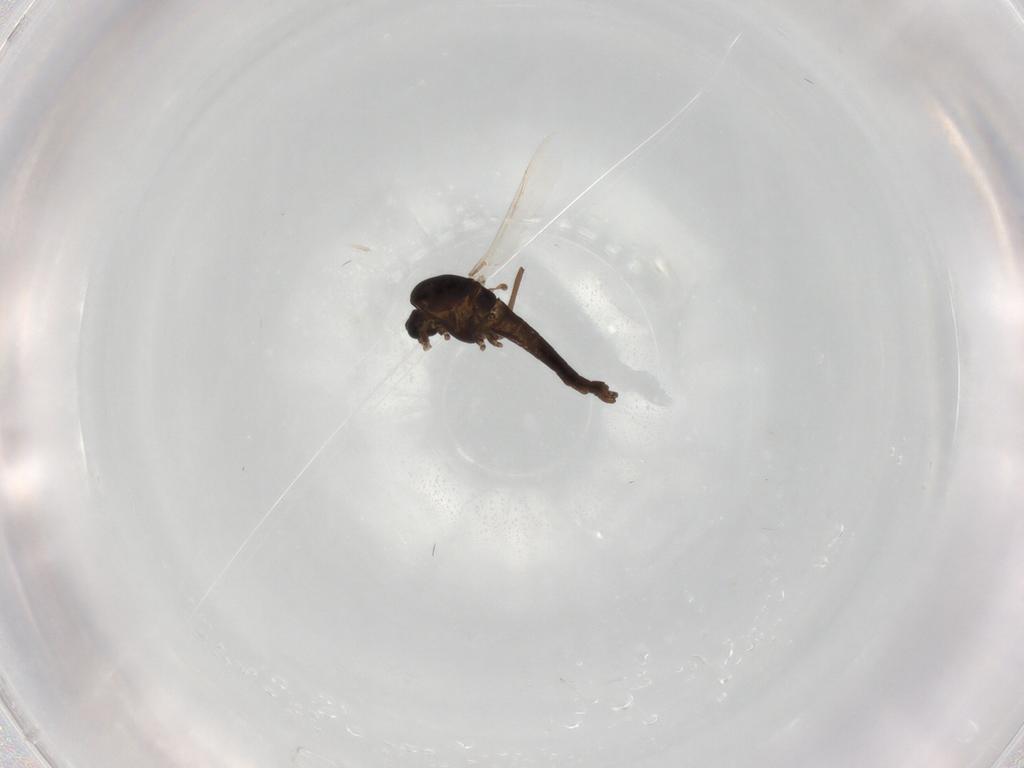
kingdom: Animalia
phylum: Arthropoda
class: Insecta
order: Diptera
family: Chironomidae
